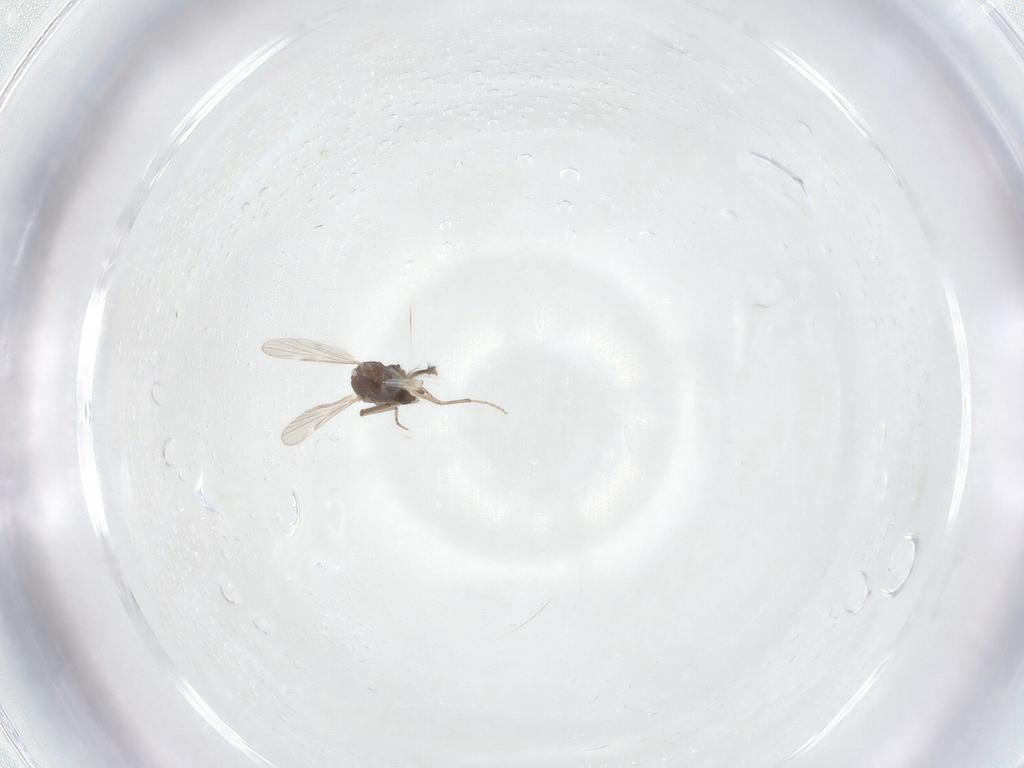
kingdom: Animalia
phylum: Arthropoda
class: Insecta
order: Diptera
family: Ceratopogonidae
